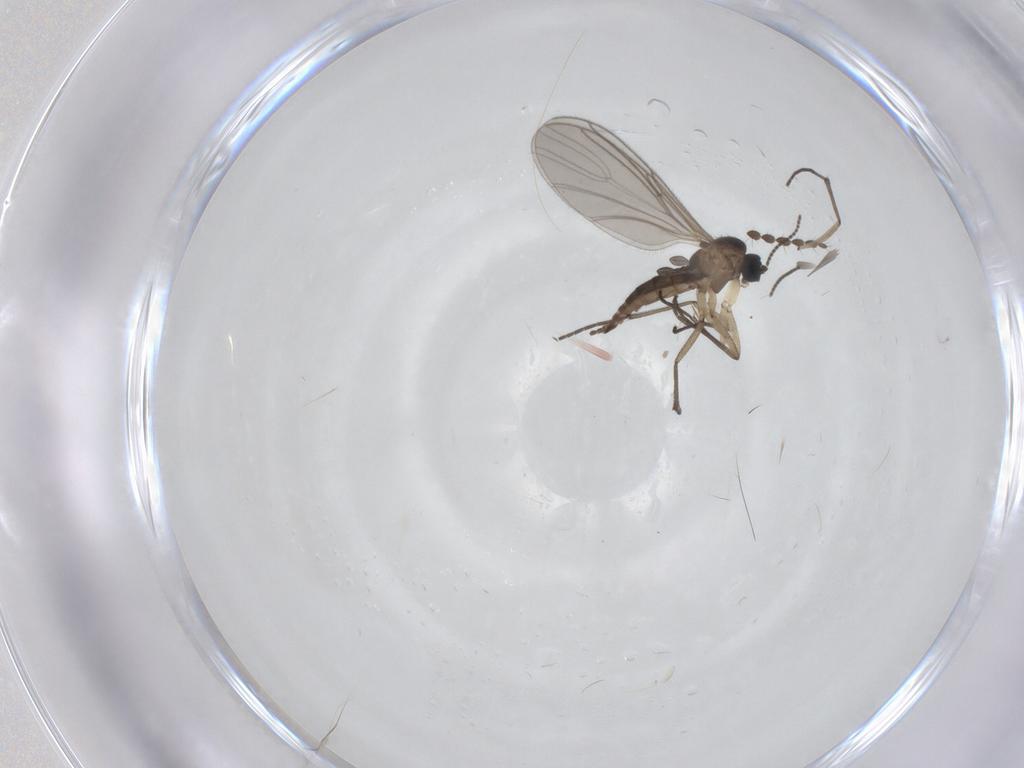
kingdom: Animalia
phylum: Arthropoda
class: Insecta
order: Diptera
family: Sciaridae
